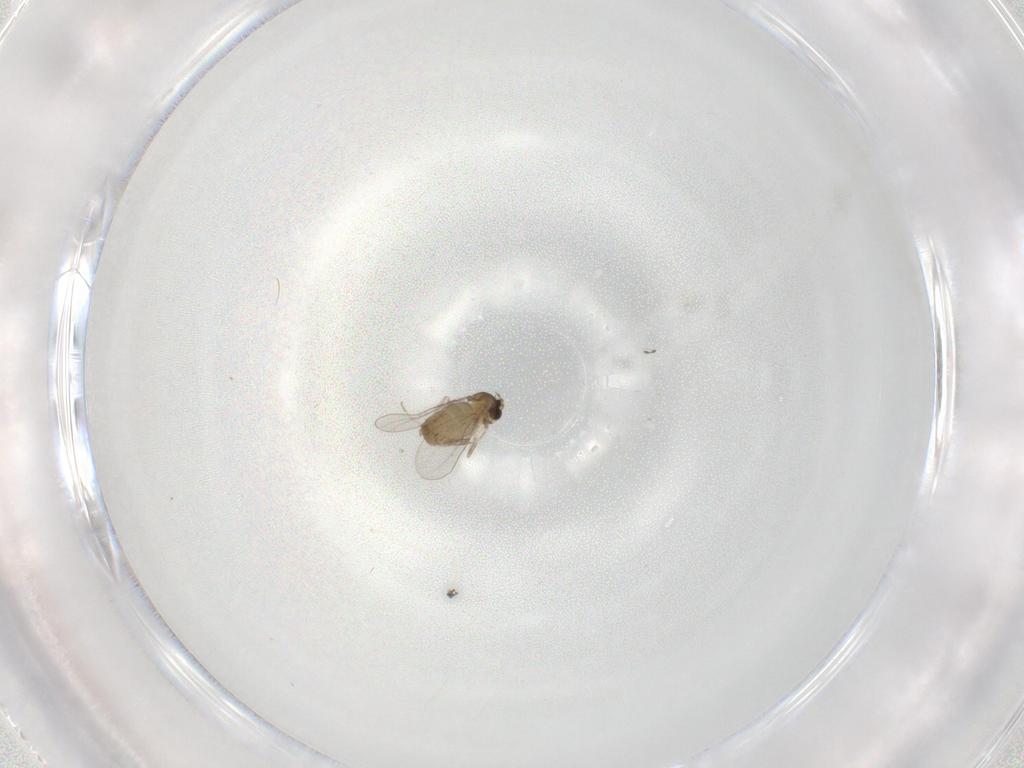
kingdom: Animalia
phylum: Arthropoda
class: Insecta
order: Diptera
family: Cecidomyiidae
